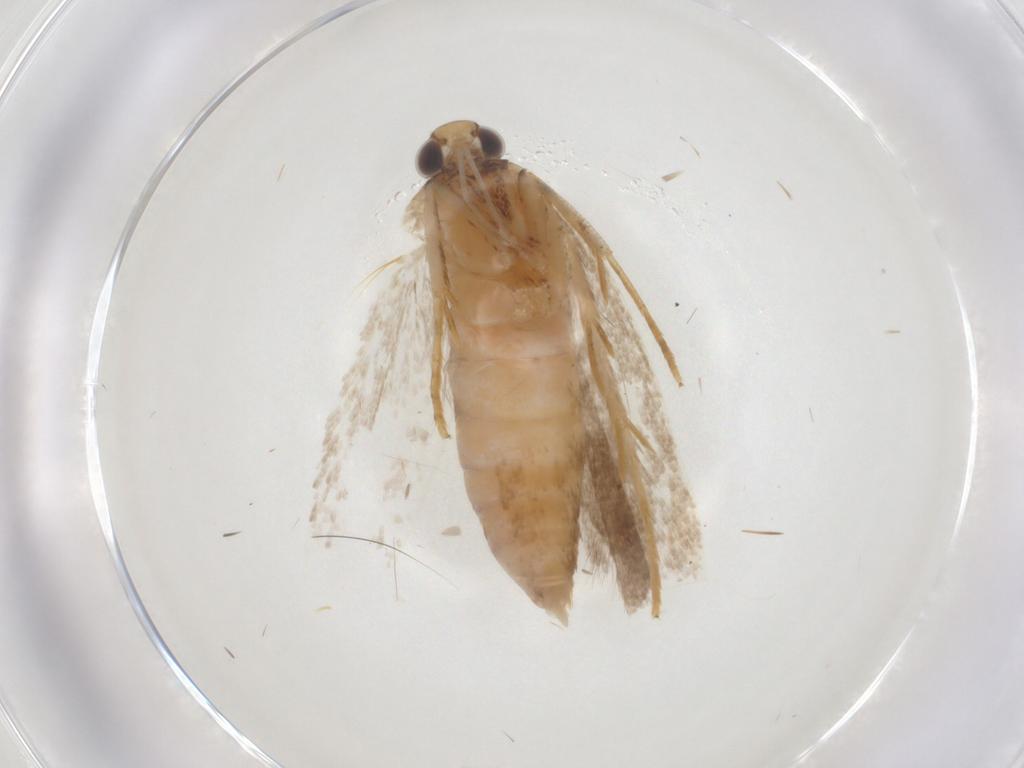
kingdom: Animalia
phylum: Arthropoda
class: Insecta
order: Lepidoptera
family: Gelechiidae
